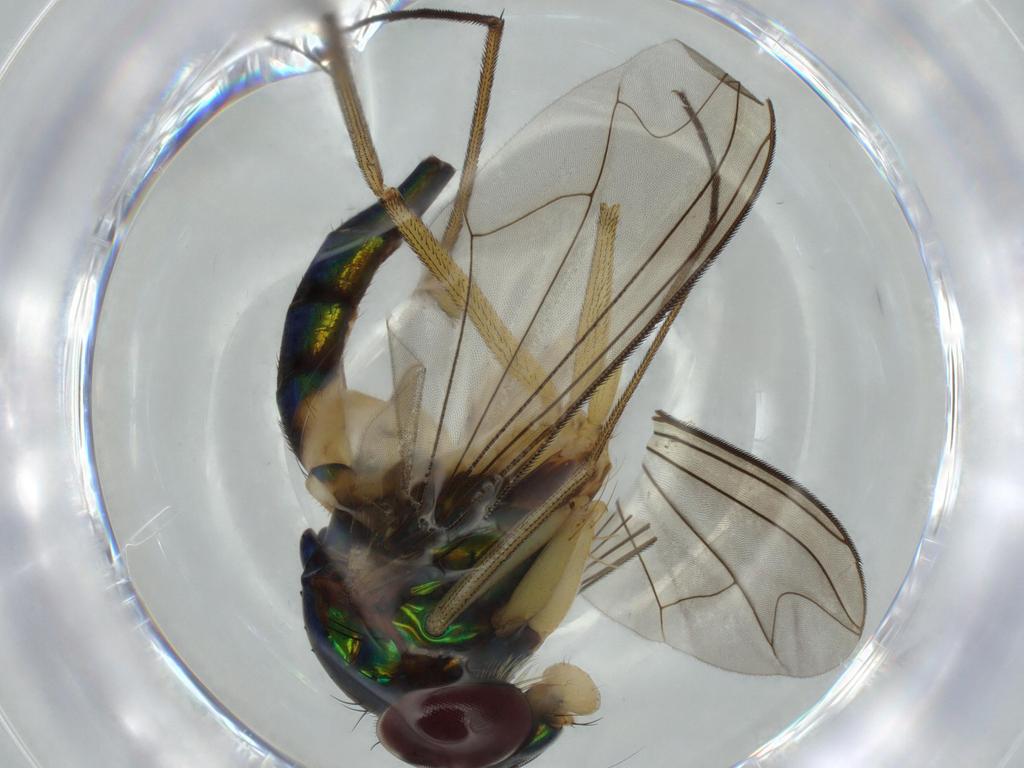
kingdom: Animalia
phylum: Arthropoda
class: Insecta
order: Diptera
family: Dolichopodidae
